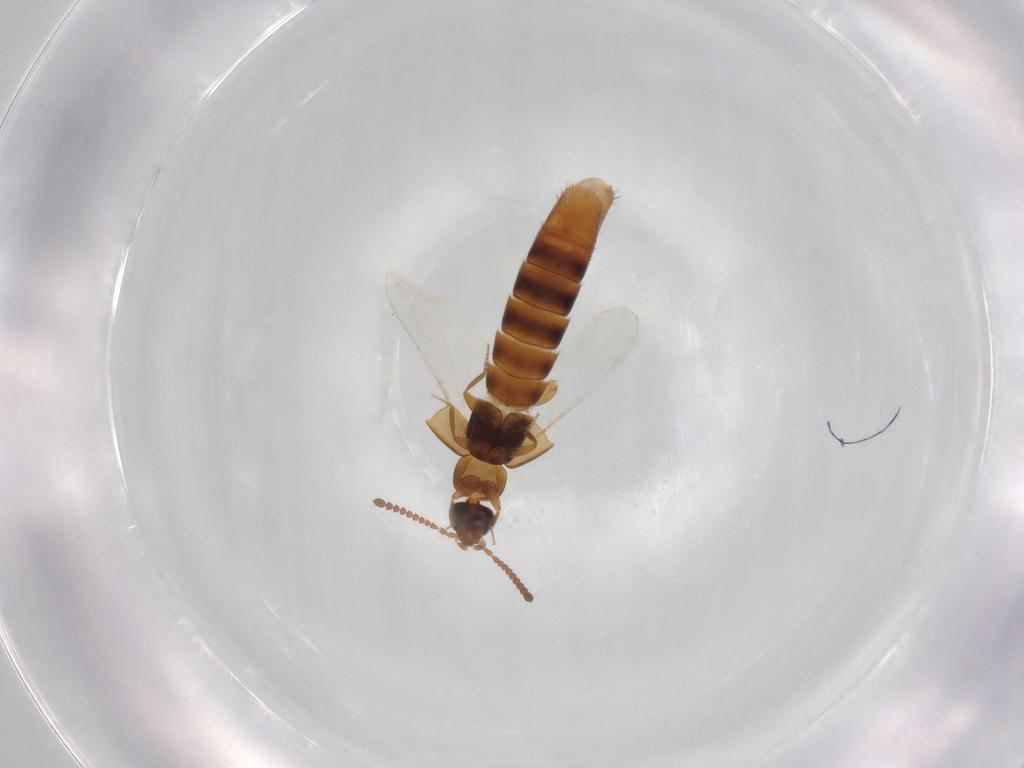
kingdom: Animalia
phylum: Arthropoda
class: Insecta
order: Coleoptera
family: Staphylinidae
